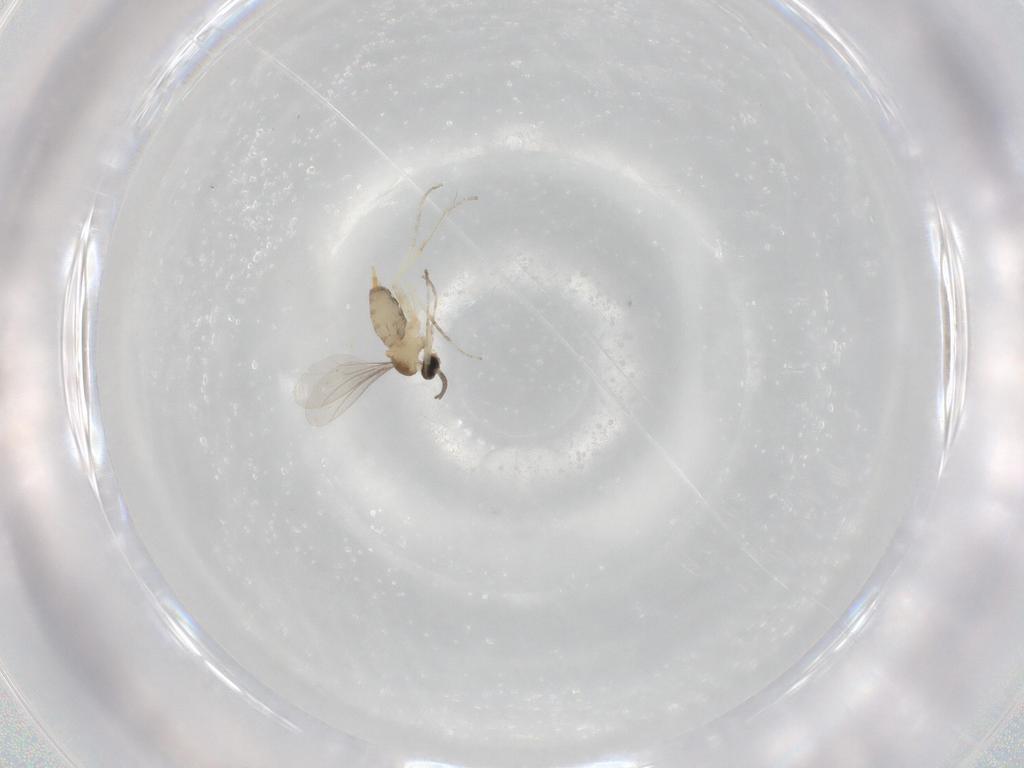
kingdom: Animalia
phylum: Arthropoda
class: Insecta
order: Diptera
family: Cecidomyiidae
